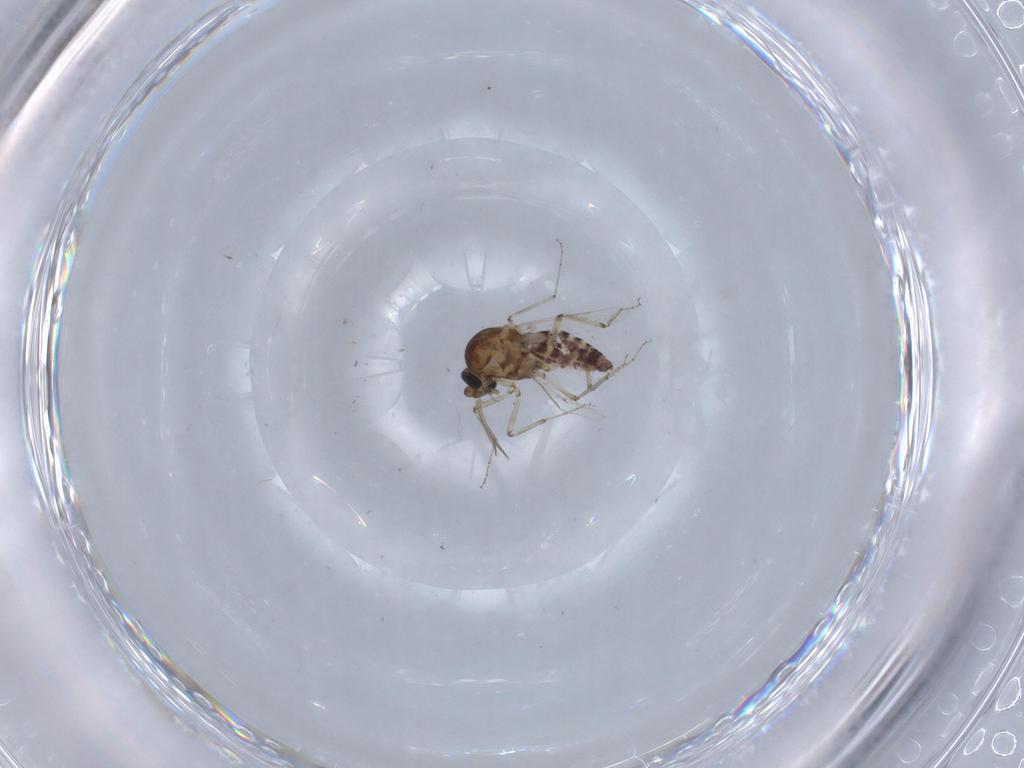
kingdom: Animalia
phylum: Arthropoda
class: Insecta
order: Diptera
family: Ceratopogonidae
